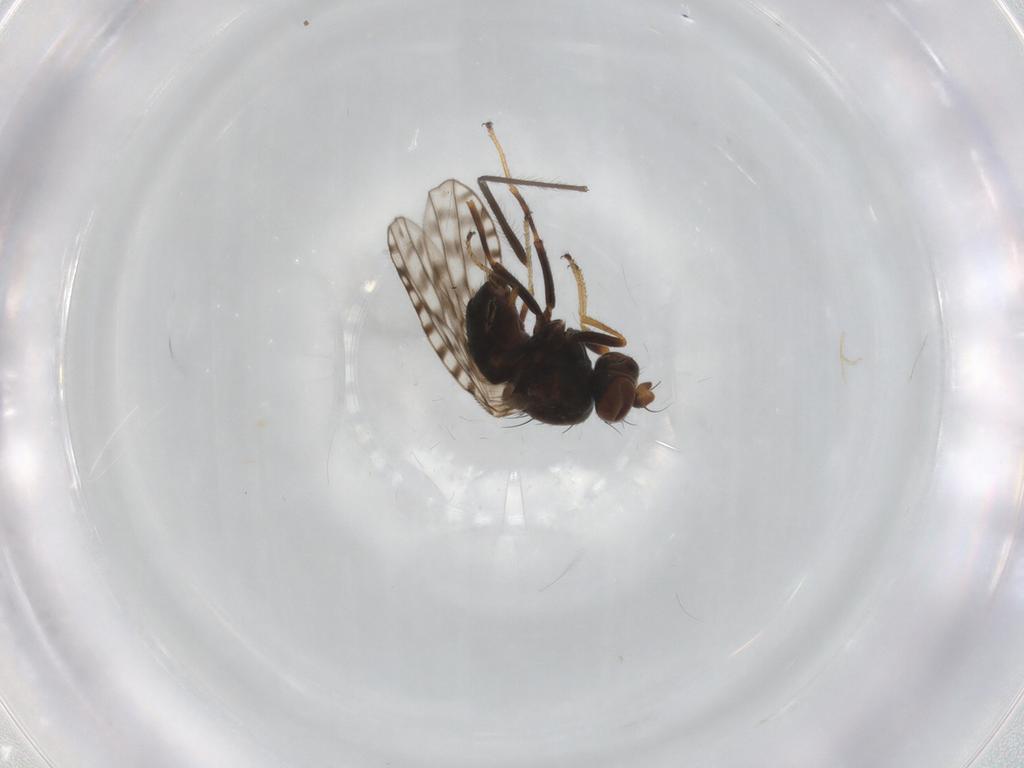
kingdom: Animalia
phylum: Arthropoda
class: Insecta
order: Diptera
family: Ephydridae
